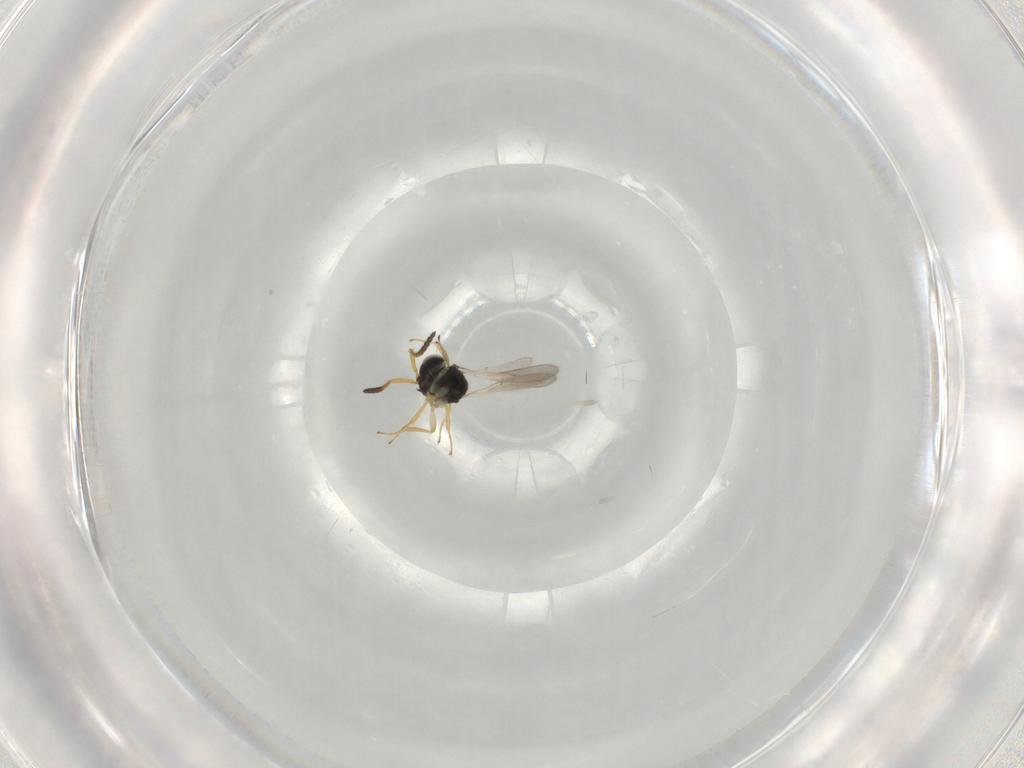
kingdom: Animalia
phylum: Arthropoda
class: Insecta
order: Hymenoptera
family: Scelionidae
